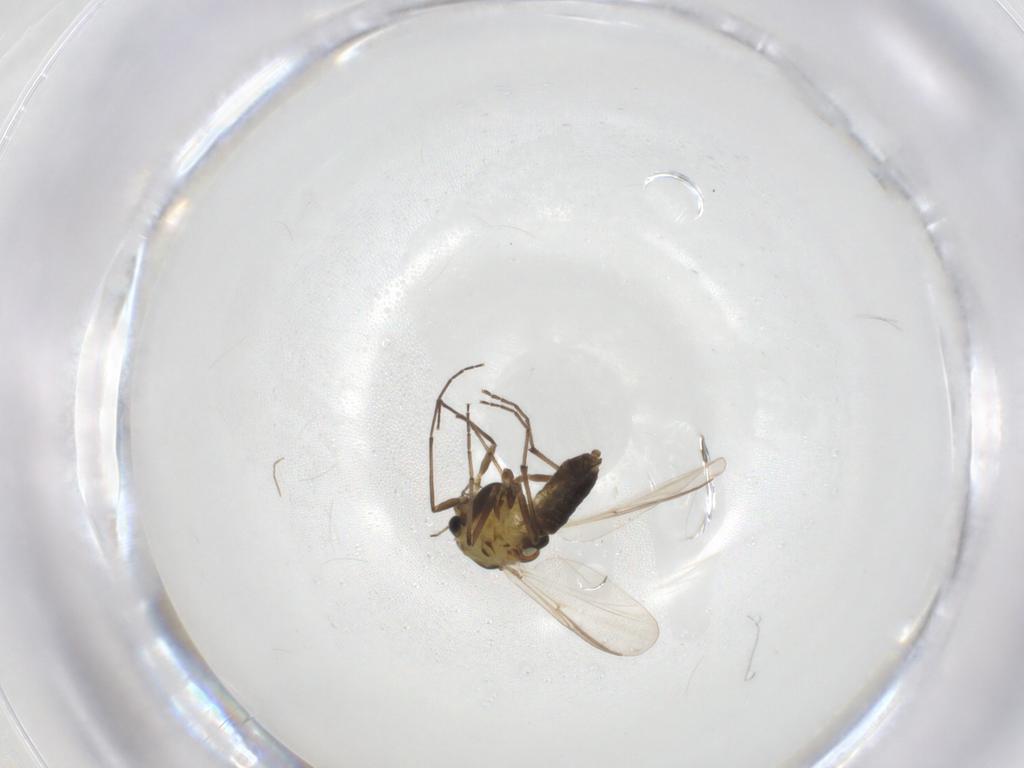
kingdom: Animalia
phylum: Arthropoda
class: Insecta
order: Diptera
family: Chironomidae
